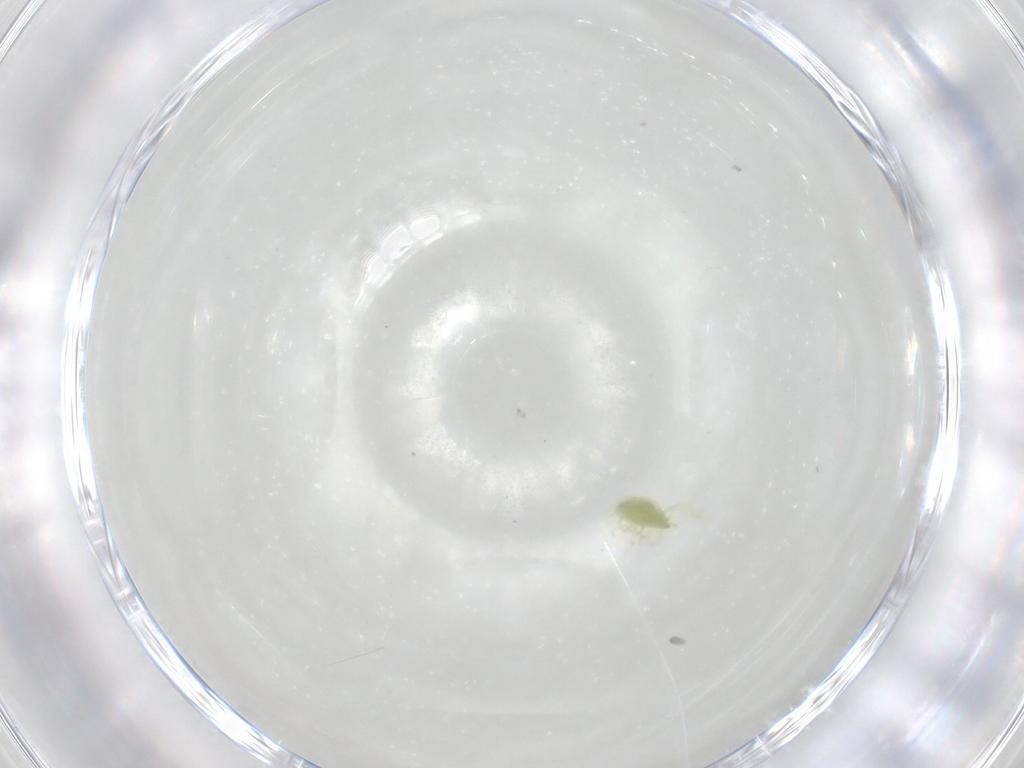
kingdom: Animalia
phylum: Arthropoda
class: Arachnida
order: Trombidiformes
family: Erythraeidae
